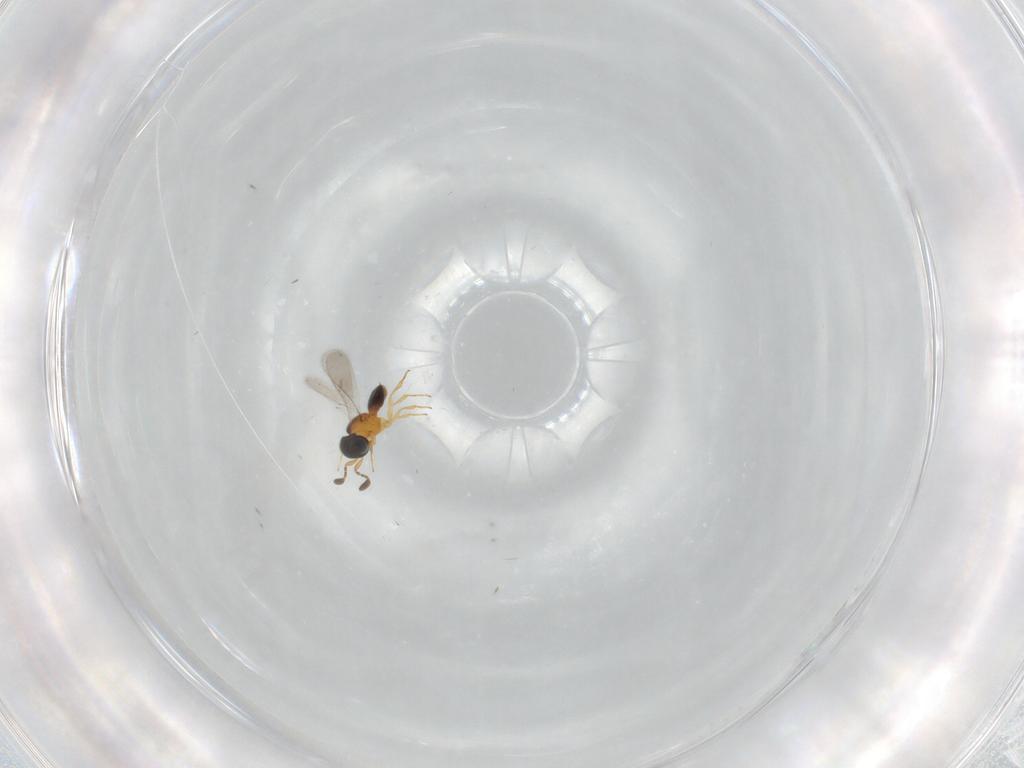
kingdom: Animalia
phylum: Arthropoda
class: Insecta
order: Hymenoptera
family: Scelionidae
